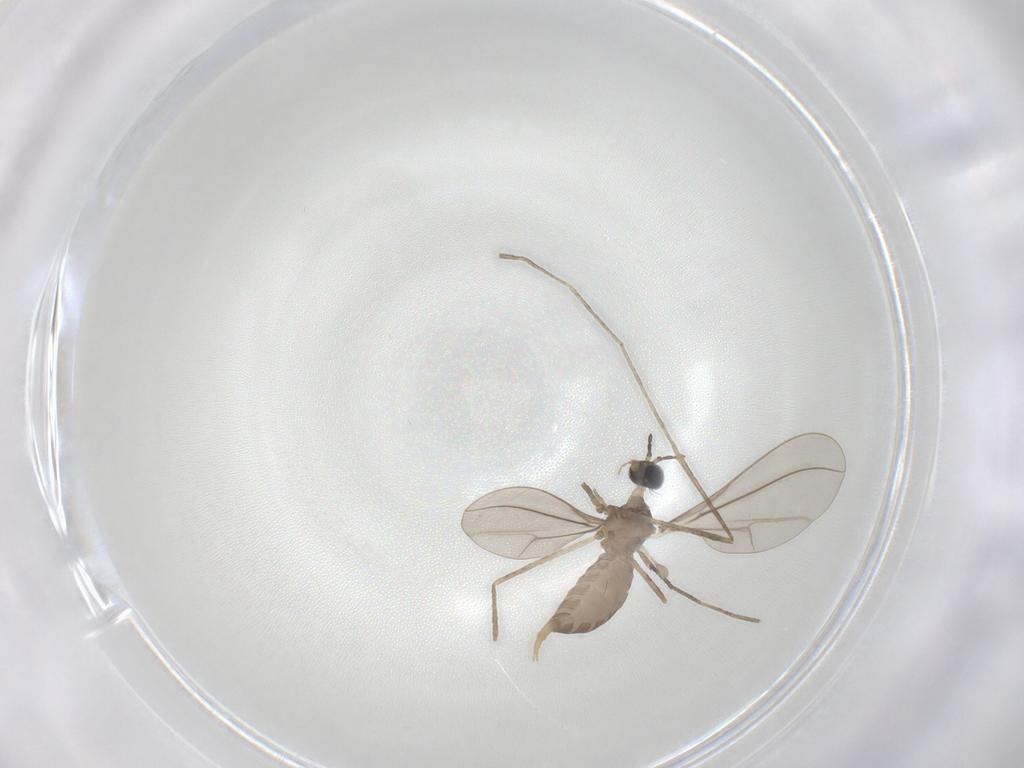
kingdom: Animalia
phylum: Arthropoda
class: Insecta
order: Diptera
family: Cecidomyiidae
